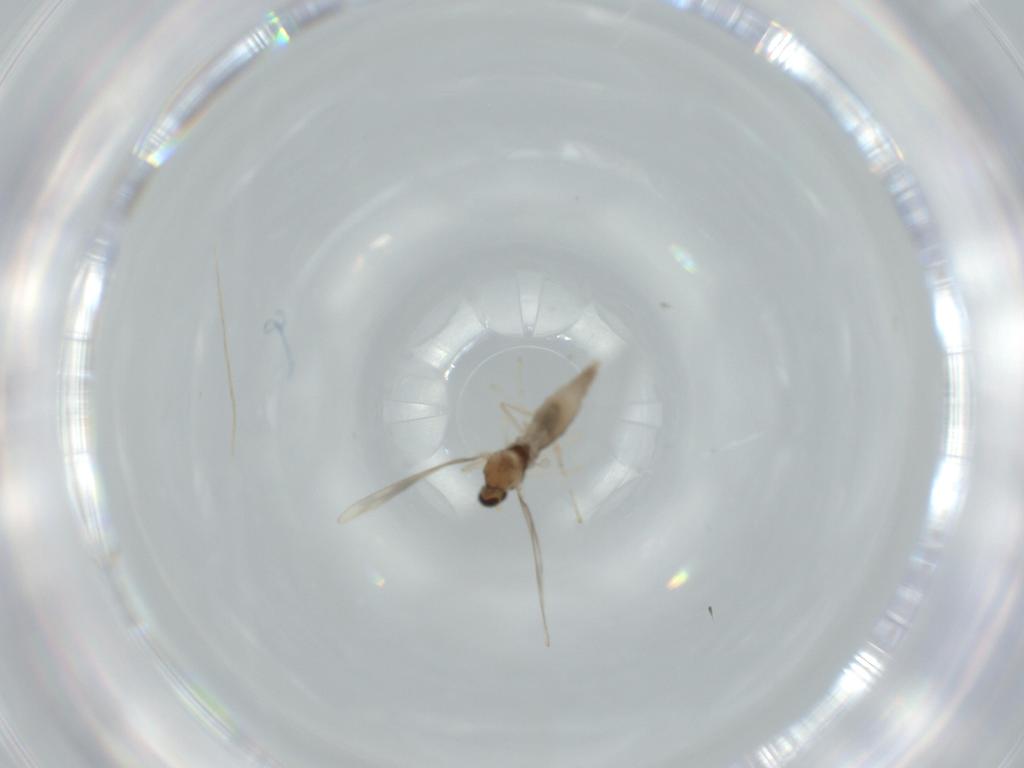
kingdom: Animalia
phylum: Arthropoda
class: Insecta
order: Diptera
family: Cecidomyiidae
